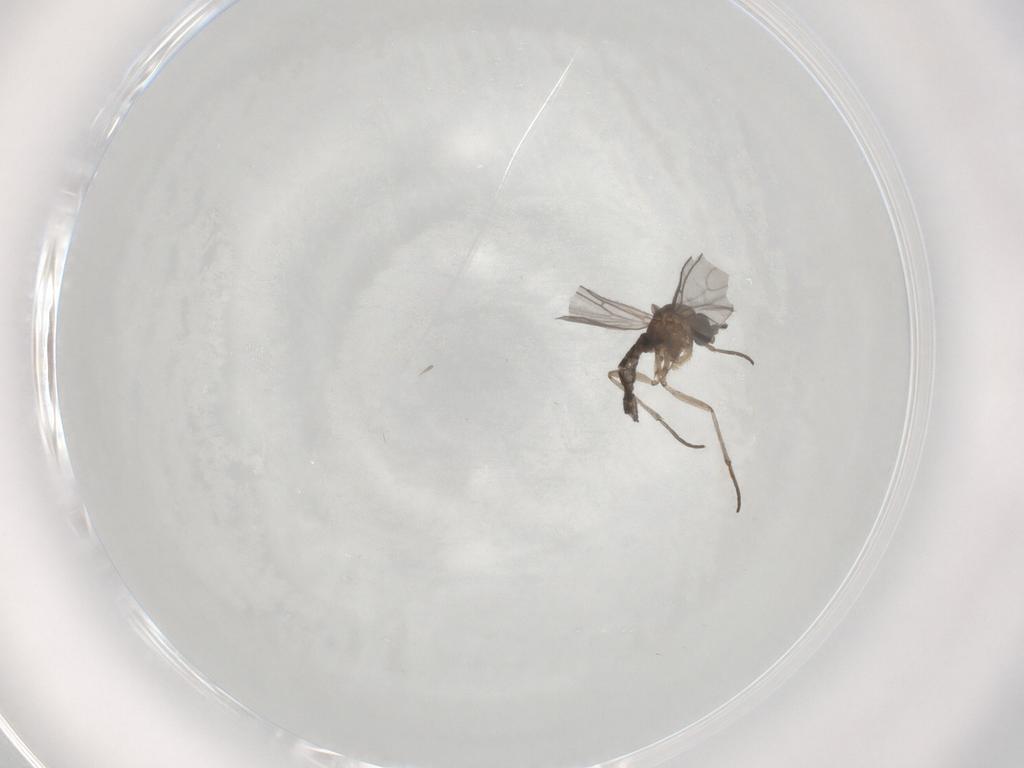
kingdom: Animalia
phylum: Arthropoda
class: Insecta
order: Diptera
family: Sciaridae
